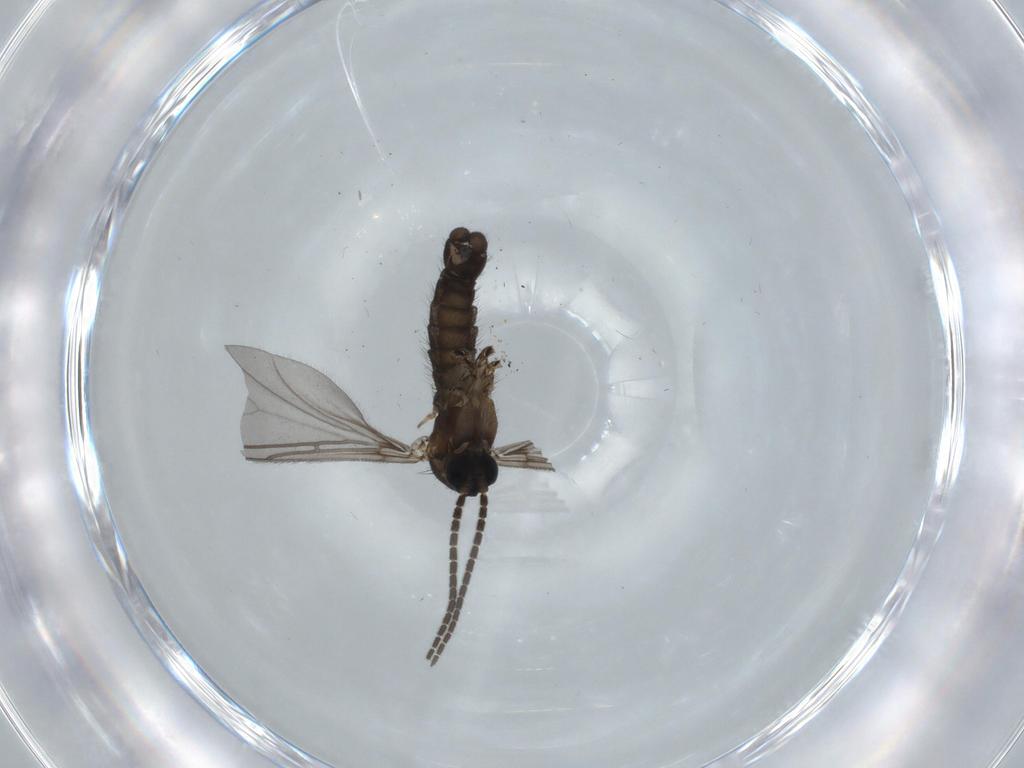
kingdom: Animalia
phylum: Arthropoda
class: Insecta
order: Diptera
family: Sciaridae
